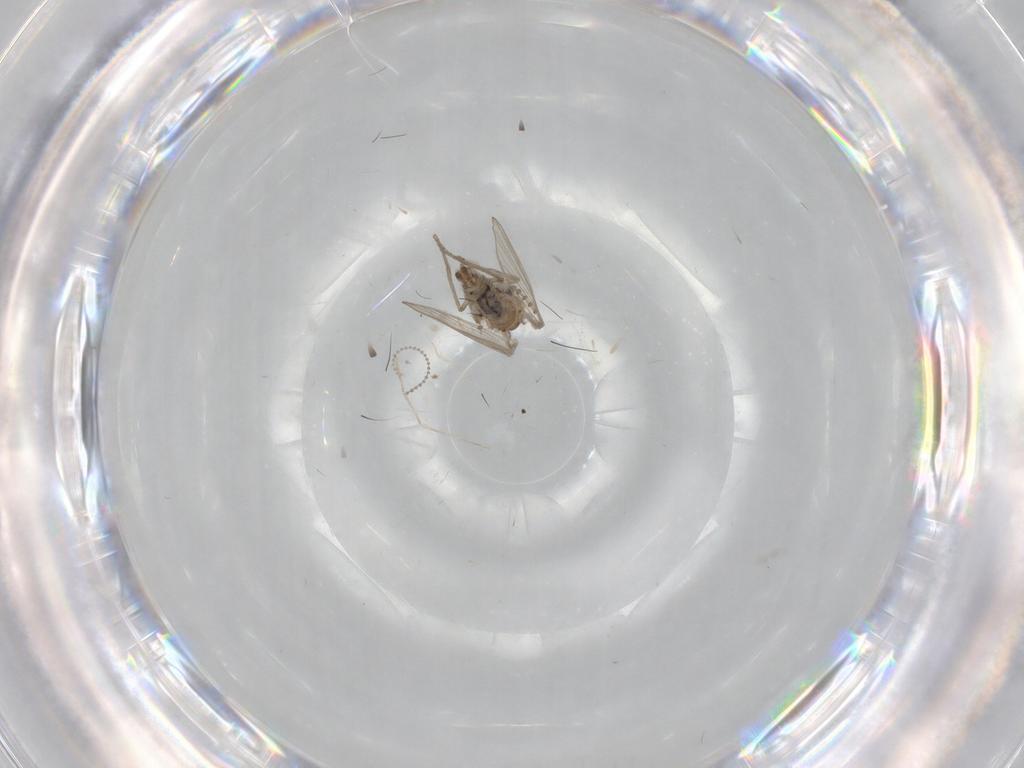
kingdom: Animalia
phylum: Arthropoda
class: Insecta
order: Diptera
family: Psychodidae
